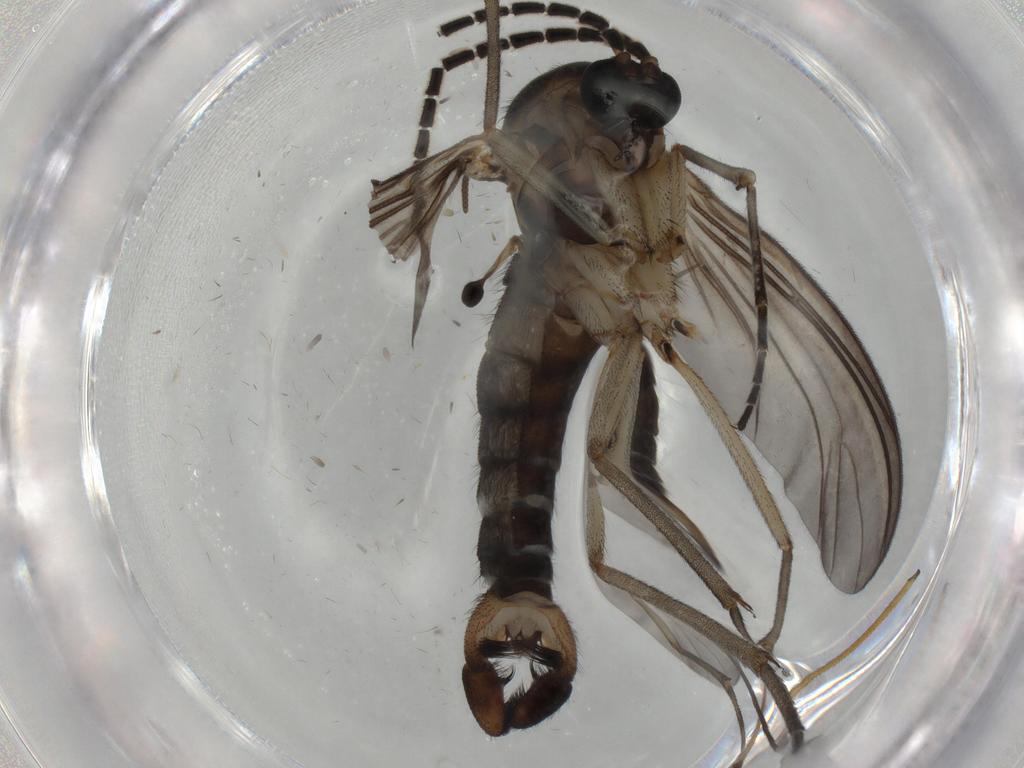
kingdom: Animalia
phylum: Arthropoda
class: Insecta
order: Diptera
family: Sciaridae
